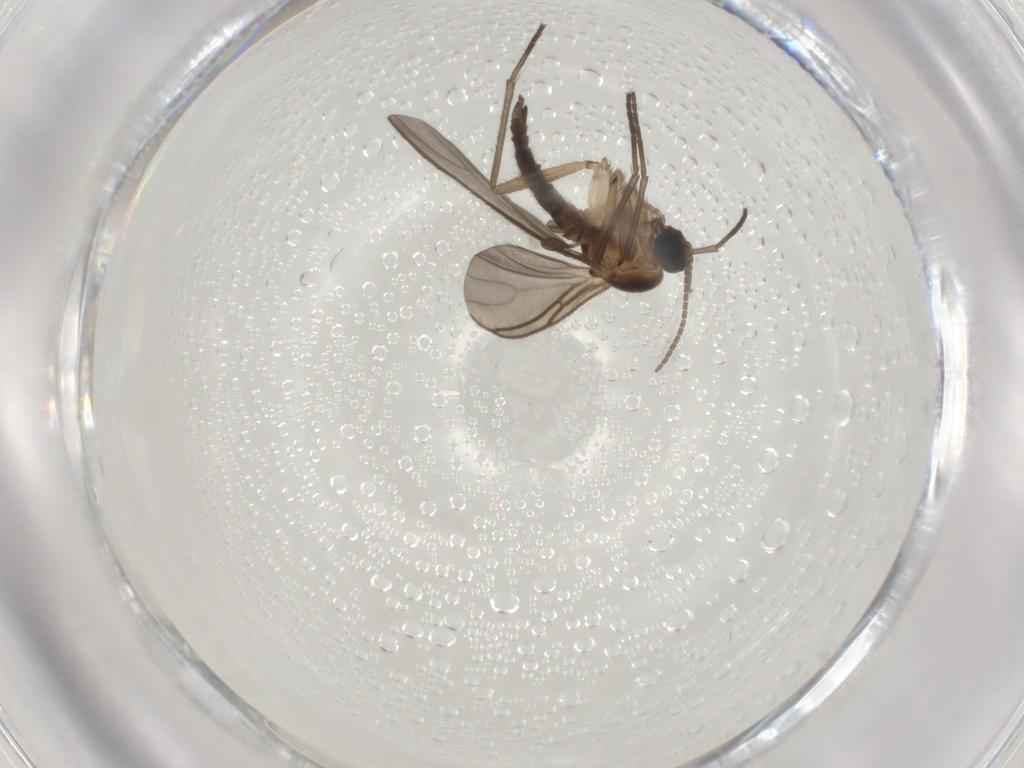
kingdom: Animalia
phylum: Arthropoda
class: Insecta
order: Diptera
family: Sciaridae
